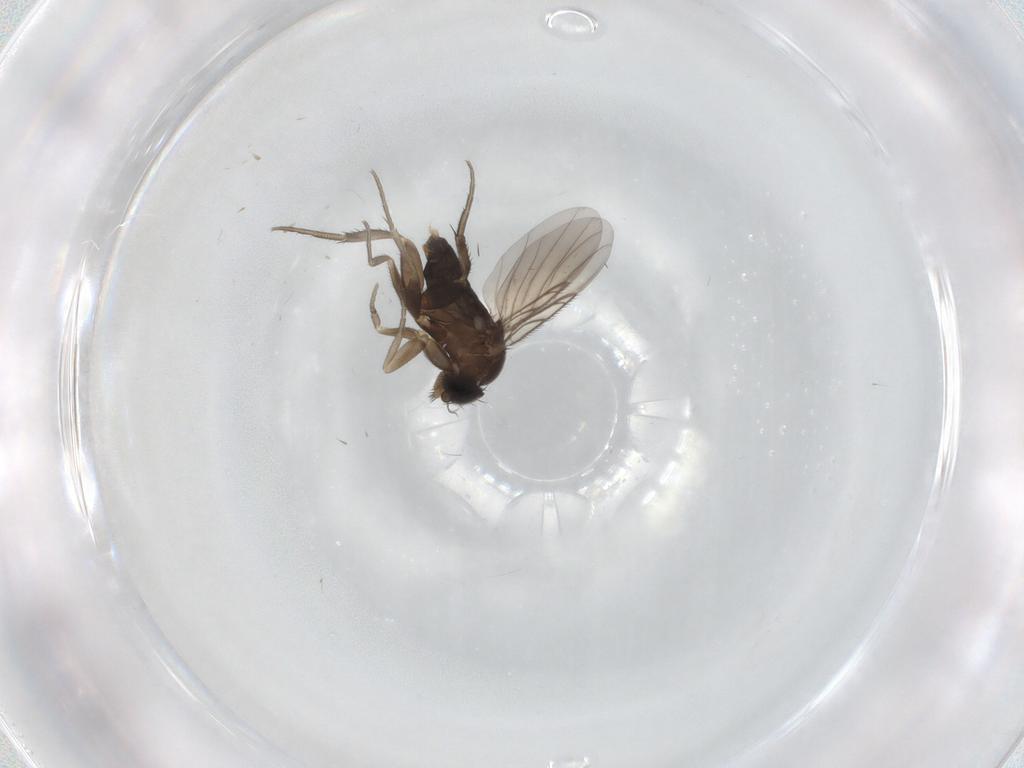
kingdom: Animalia
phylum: Arthropoda
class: Insecta
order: Diptera
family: Phoridae
